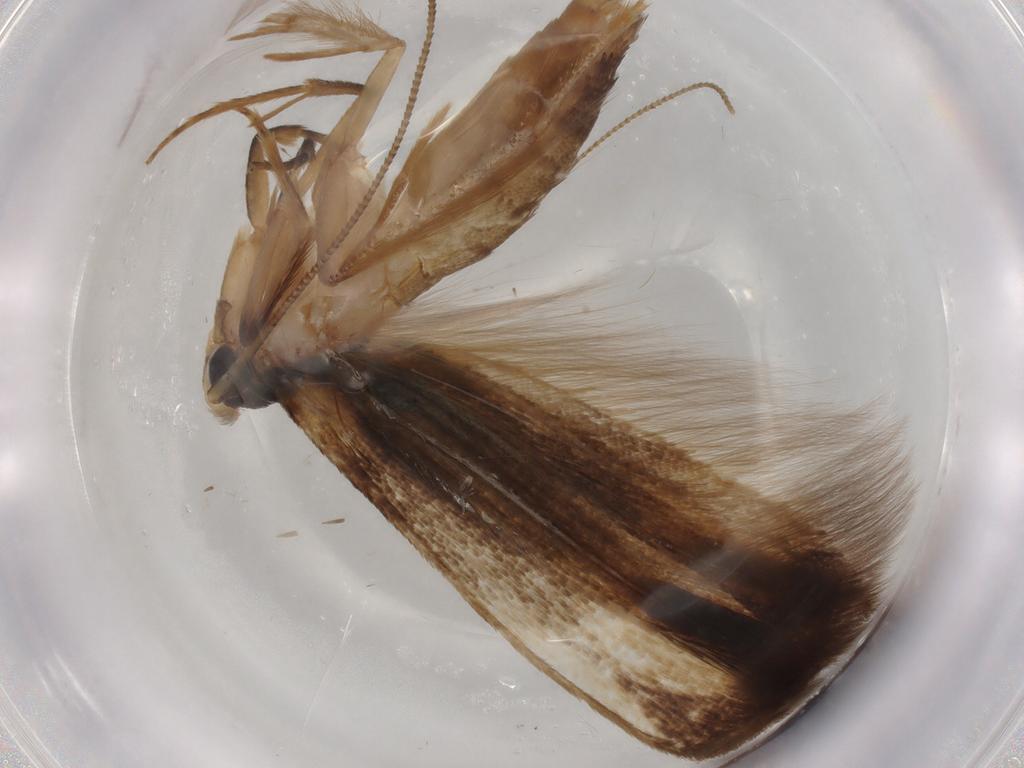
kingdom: Animalia
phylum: Arthropoda
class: Insecta
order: Lepidoptera
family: Tineidae
